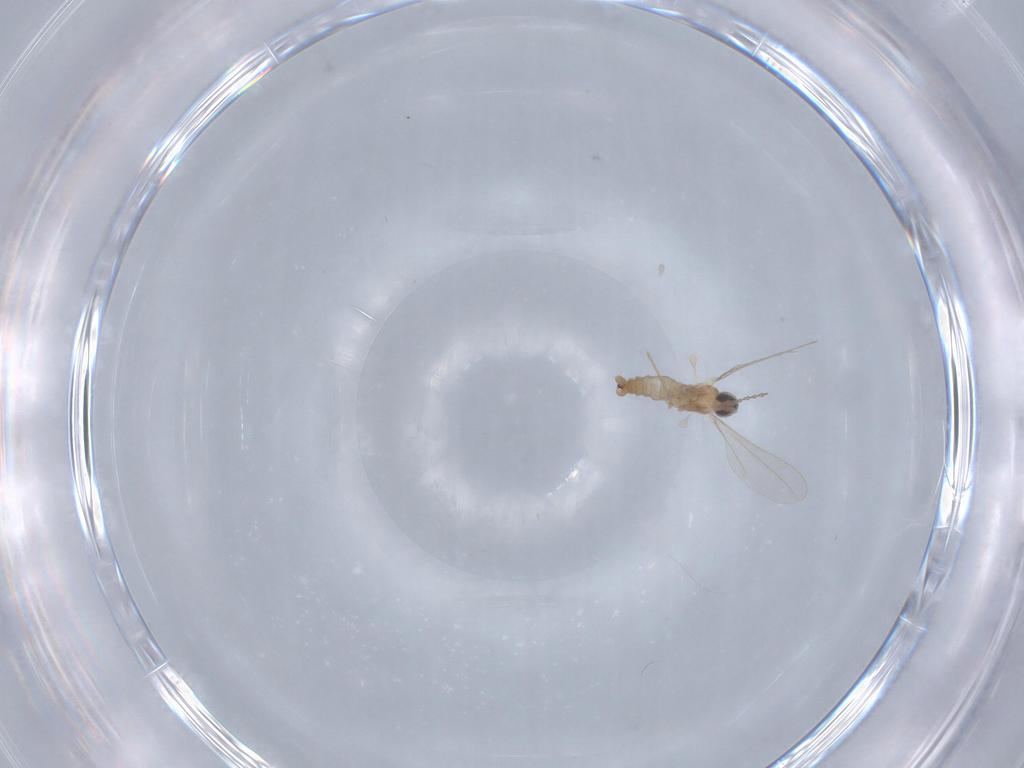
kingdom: Animalia
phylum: Arthropoda
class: Insecta
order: Diptera
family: Cecidomyiidae
